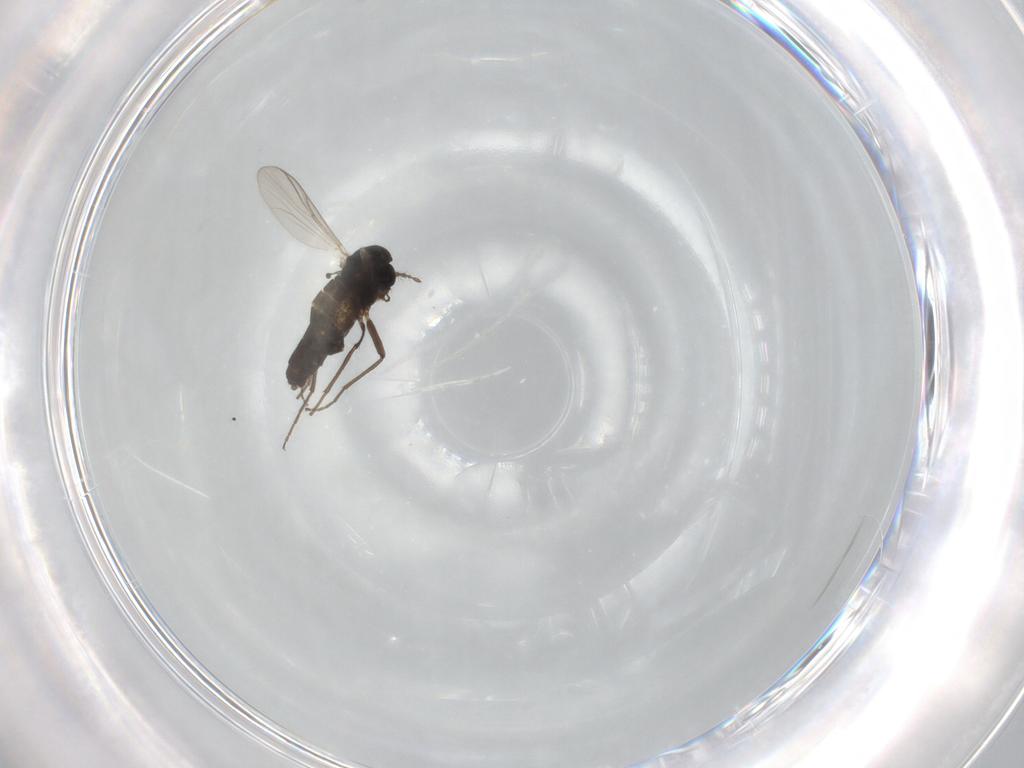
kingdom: Animalia
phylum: Arthropoda
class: Insecta
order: Diptera
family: Chironomidae
